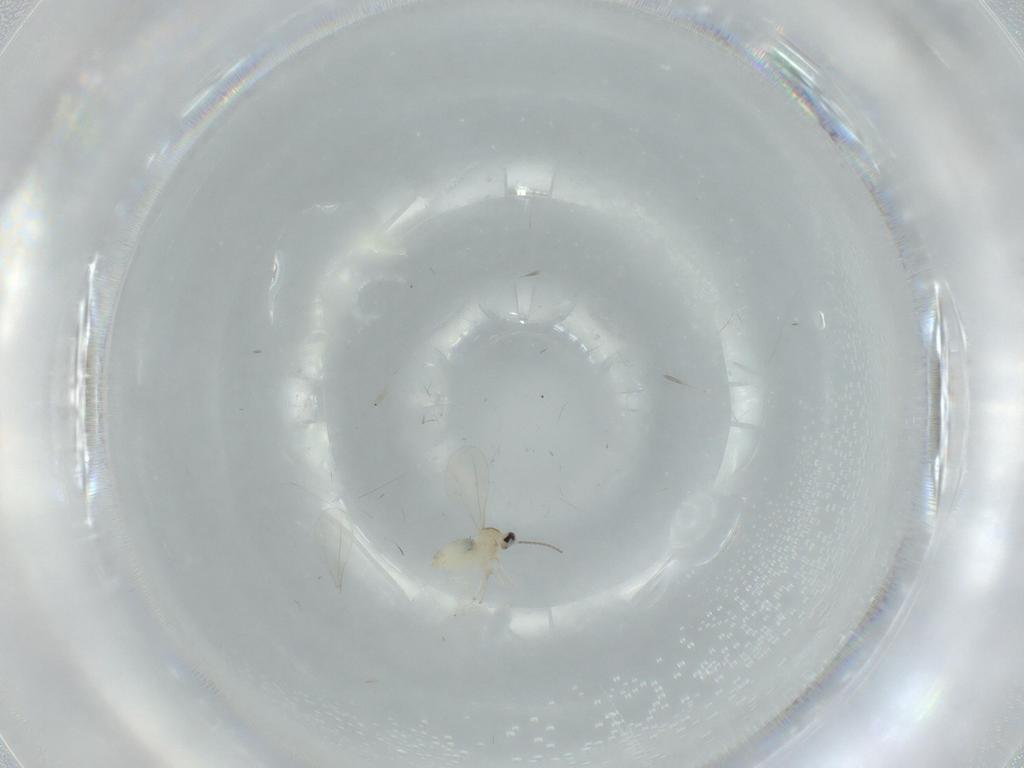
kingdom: Animalia
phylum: Arthropoda
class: Insecta
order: Diptera
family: Cecidomyiidae
